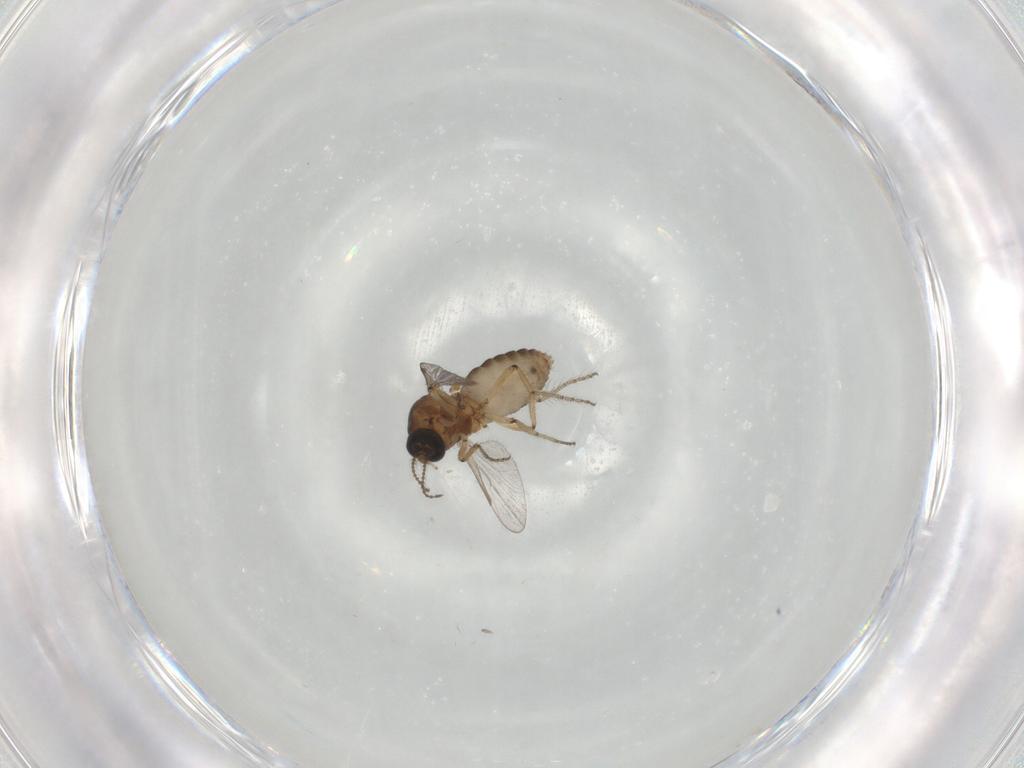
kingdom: Animalia
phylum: Arthropoda
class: Insecta
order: Diptera
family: Ceratopogonidae
